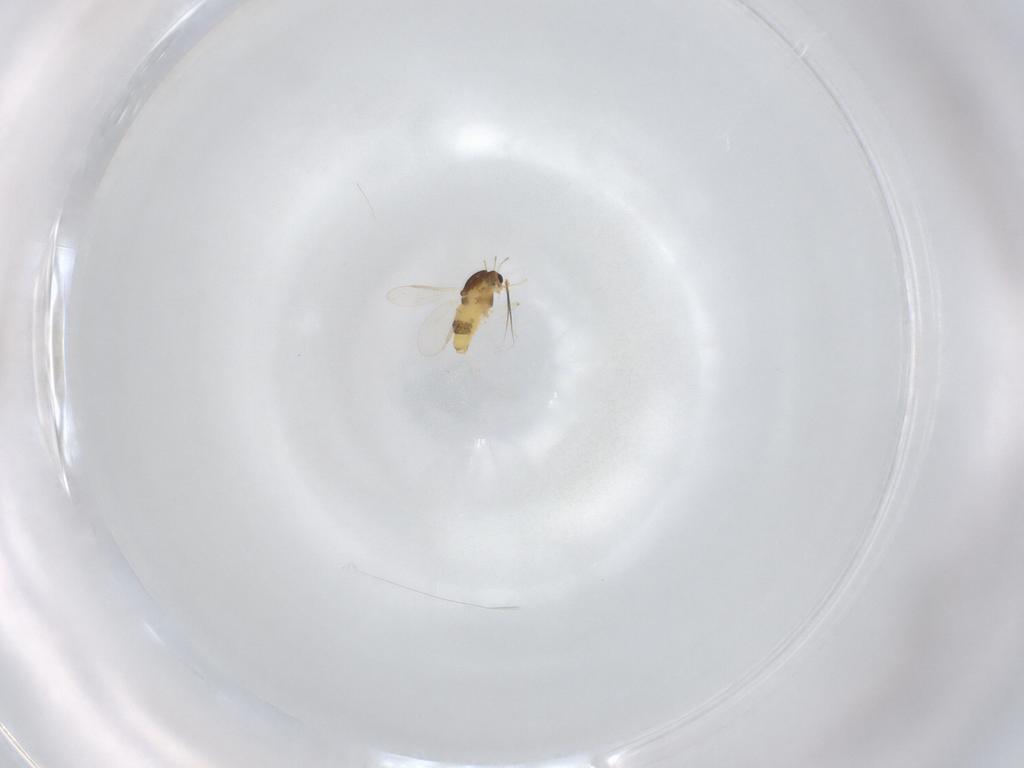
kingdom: Animalia
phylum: Arthropoda
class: Insecta
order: Diptera
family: Chironomidae
